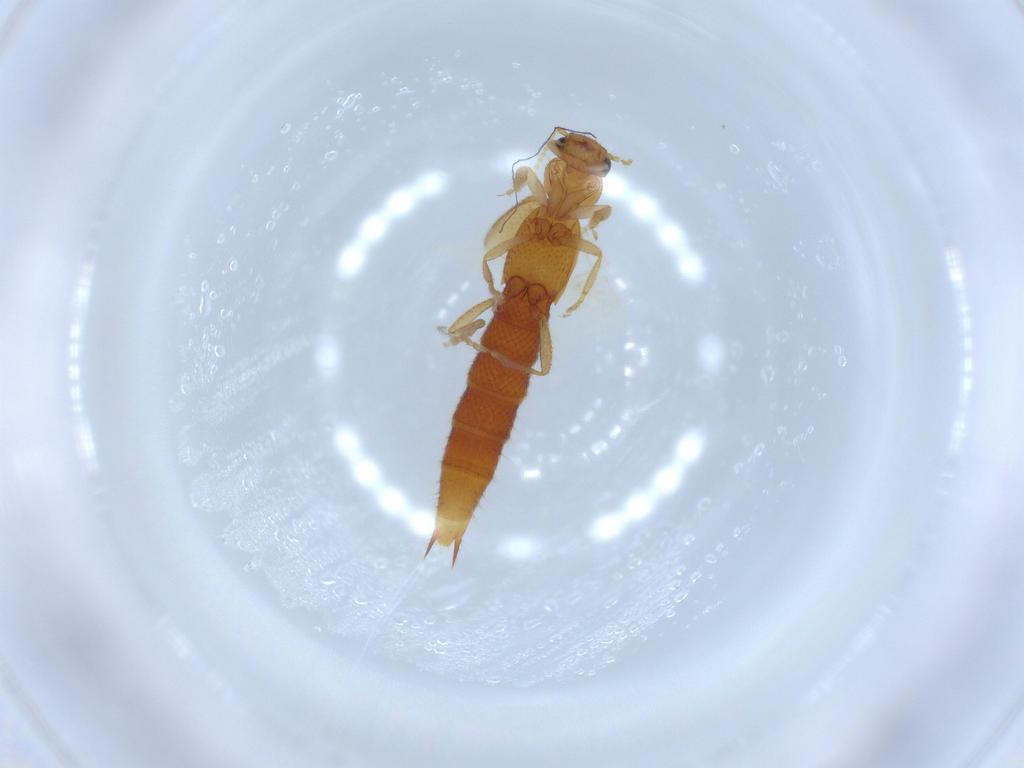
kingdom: Animalia
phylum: Arthropoda
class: Insecta
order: Coleoptera
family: Staphylinidae
